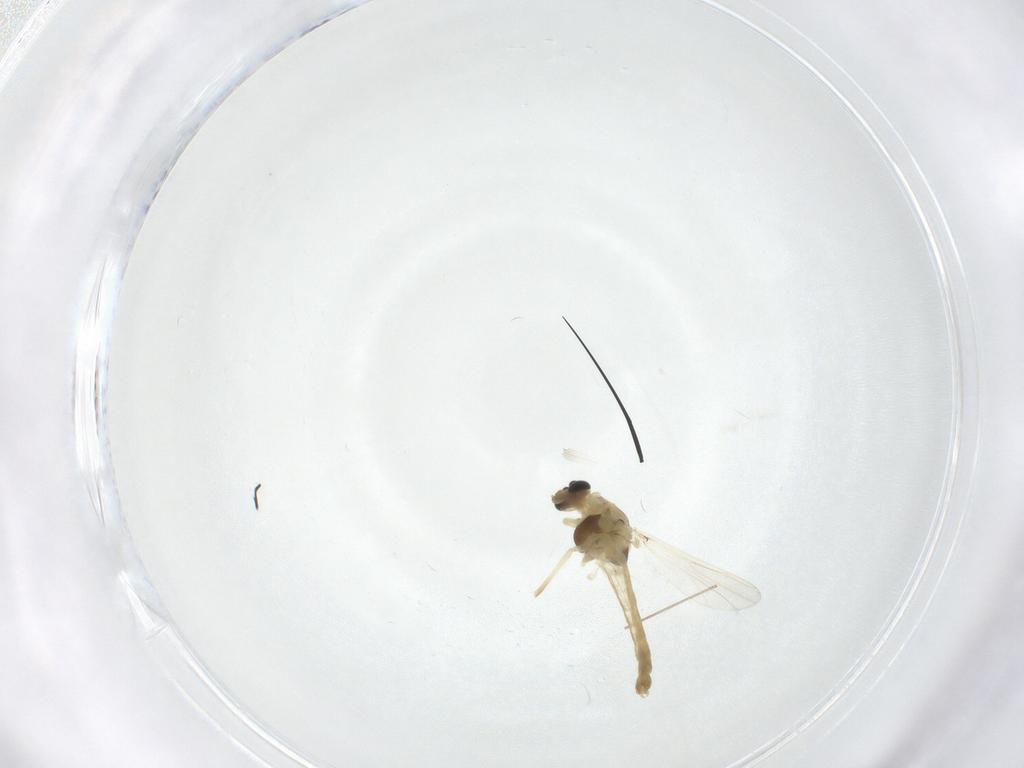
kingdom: Animalia
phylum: Arthropoda
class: Insecta
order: Diptera
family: Chironomidae
